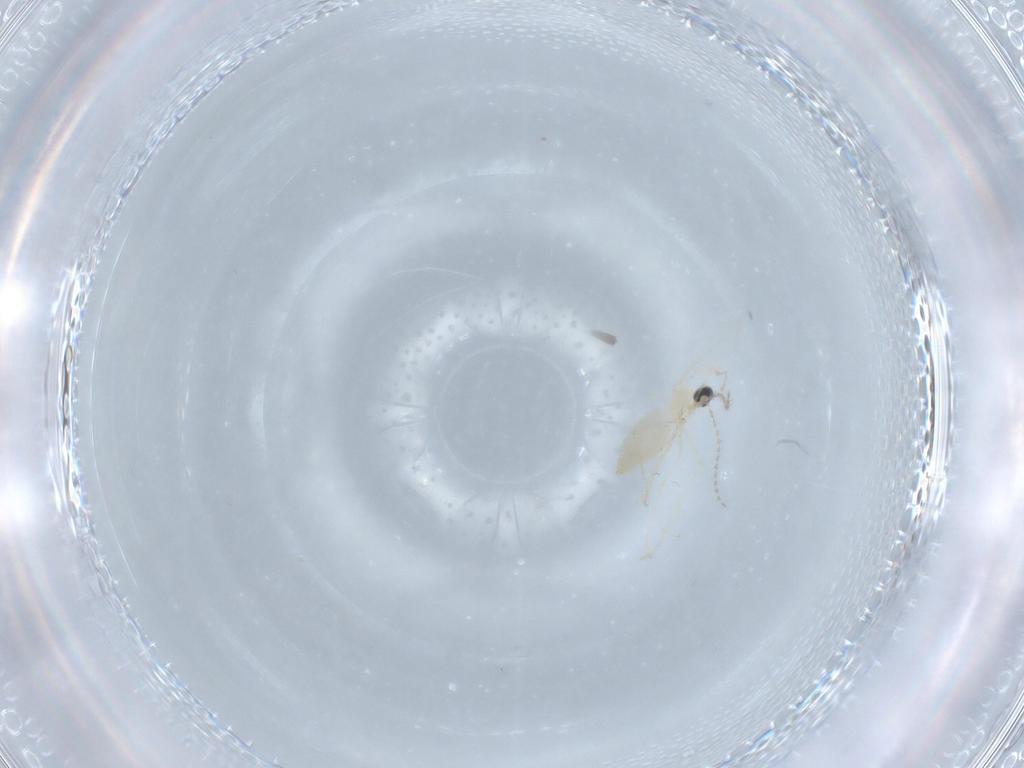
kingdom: Animalia
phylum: Arthropoda
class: Insecta
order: Diptera
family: Cecidomyiidae
